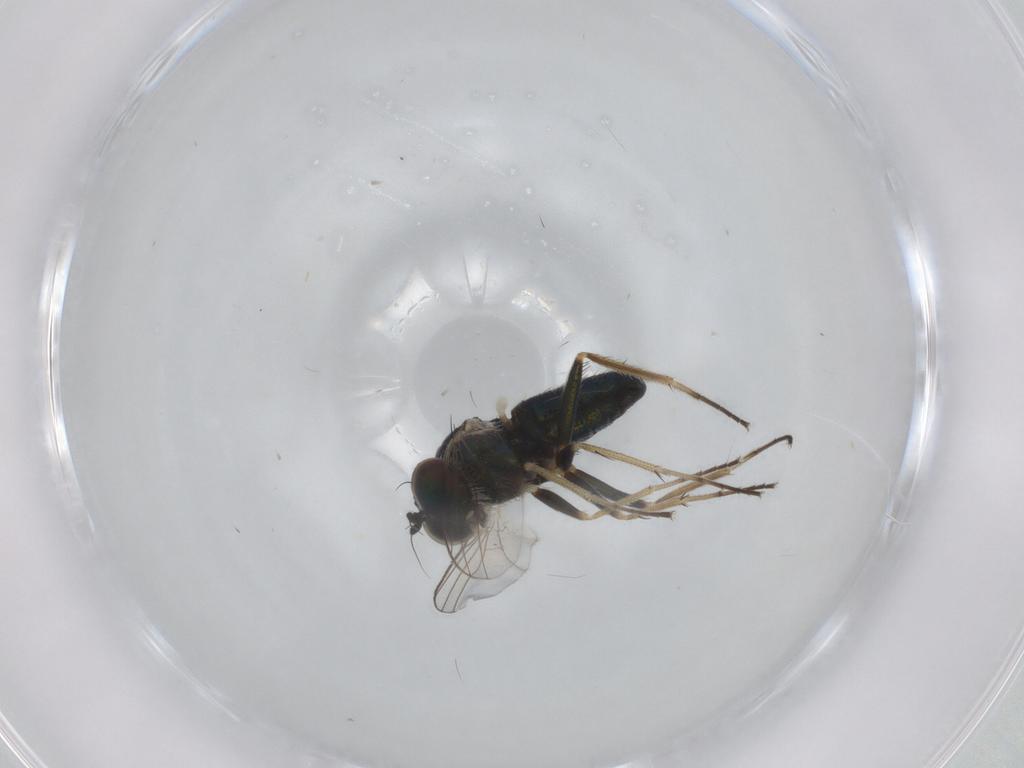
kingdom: Animalia
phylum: Arthropoda
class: Insecta
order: Diptera
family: Dolichopodidae
